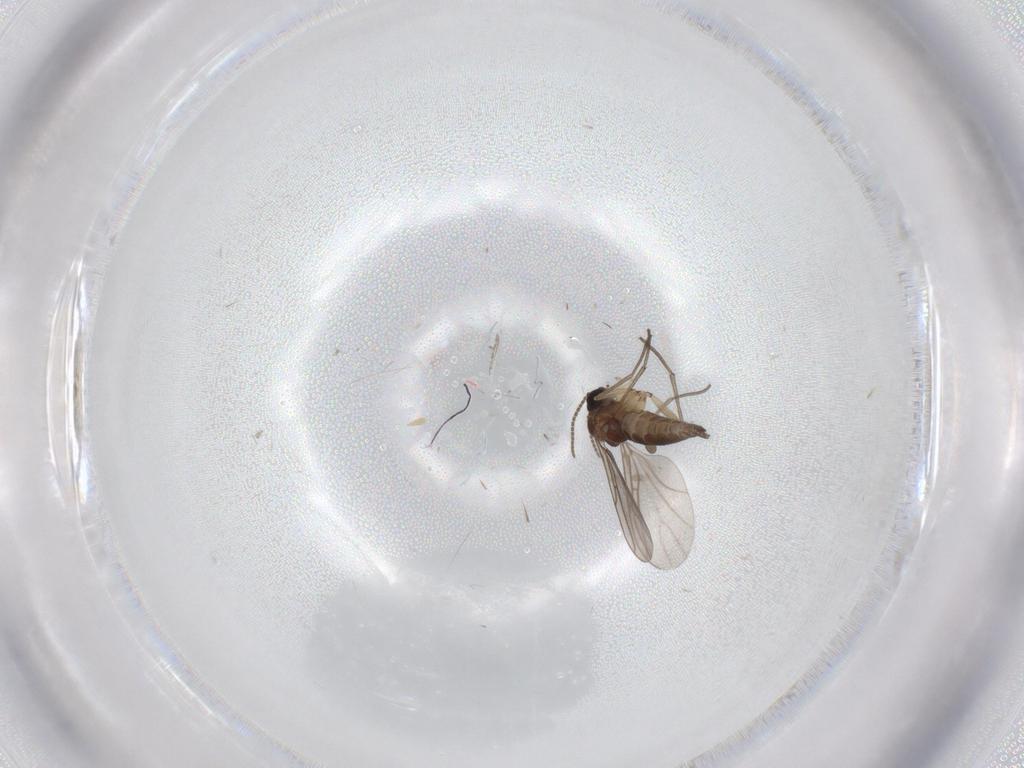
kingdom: Animalia
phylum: Arthropoda
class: Insecta
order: Diptera
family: Sciaridae
